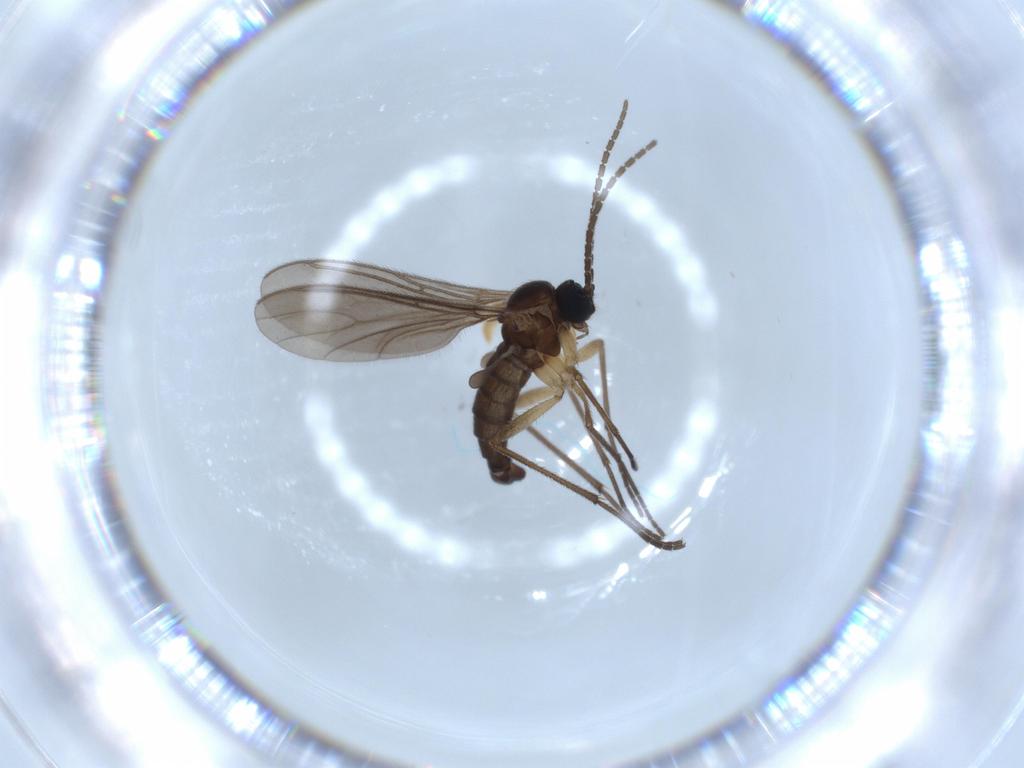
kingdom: Animalia
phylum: Arthropoda
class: Insecta
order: Diptera
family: Sciaridae
